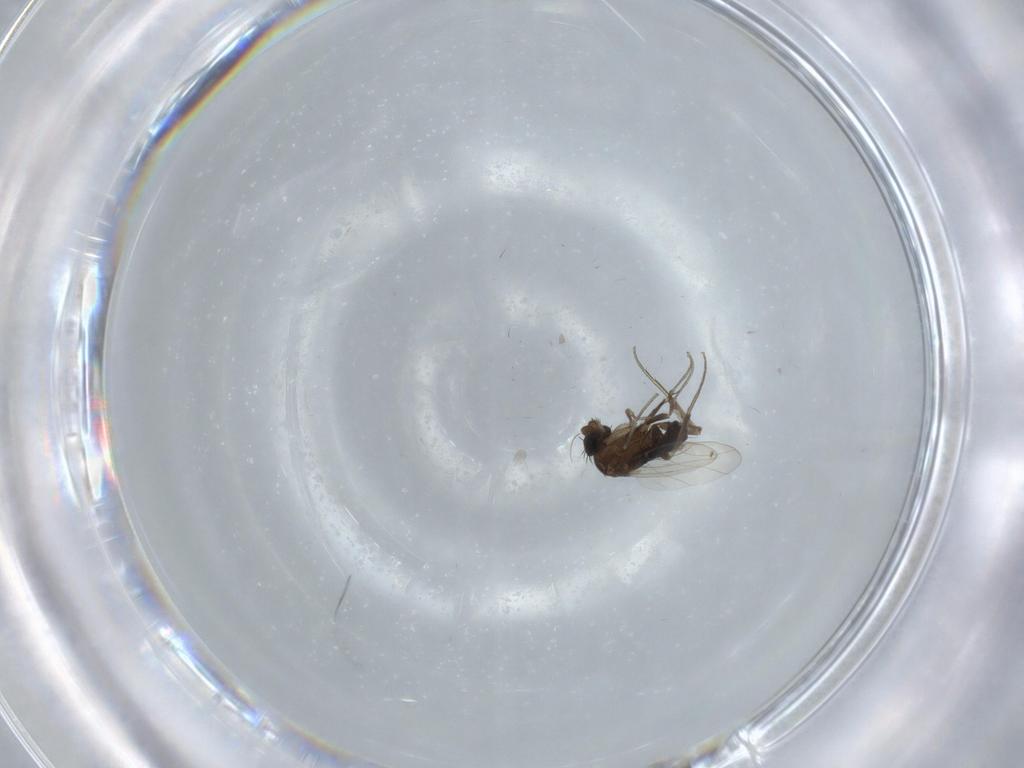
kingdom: Animalia
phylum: Arthropoda
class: Insecta
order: Diptera
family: Phoridae
